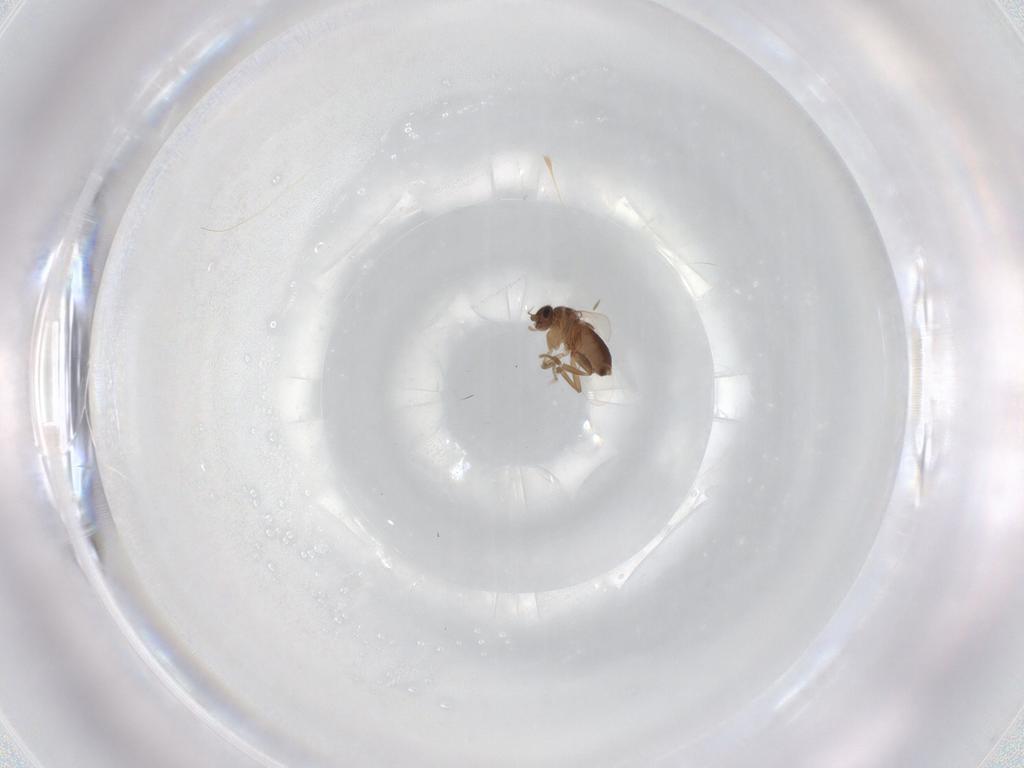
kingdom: Animalia
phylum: Arthropoda
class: Insecta
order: Diptera
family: Phoridae
